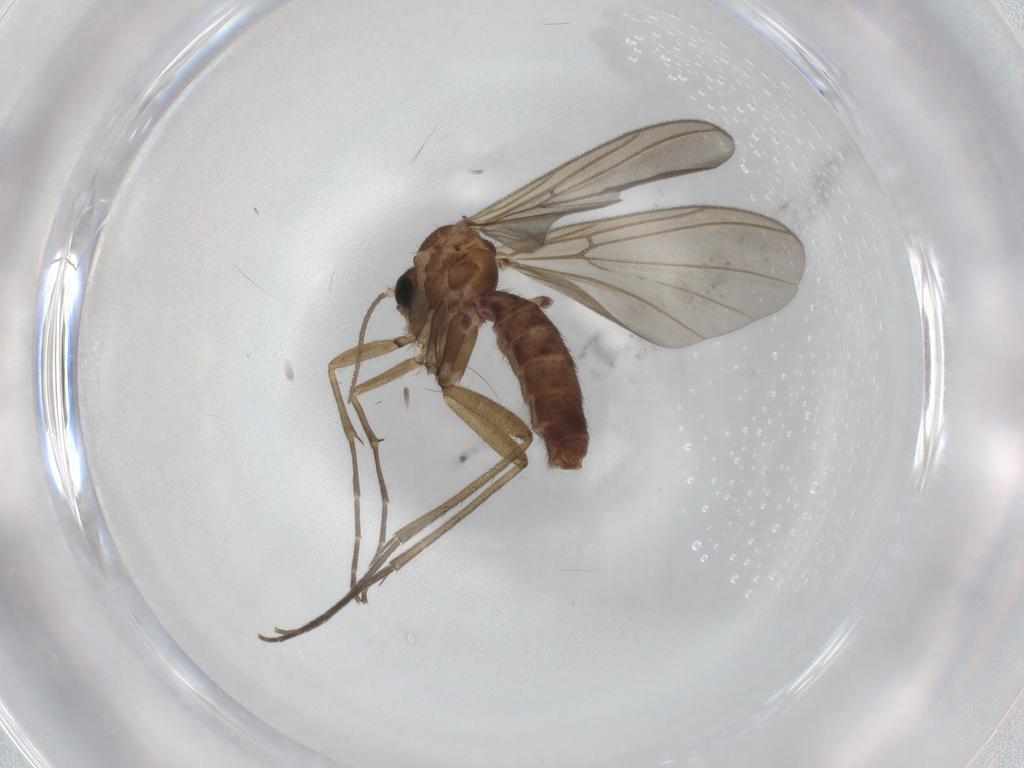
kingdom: Animalia
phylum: Arthropoda
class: Insecta
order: Diptera
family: Mycetophilidae
